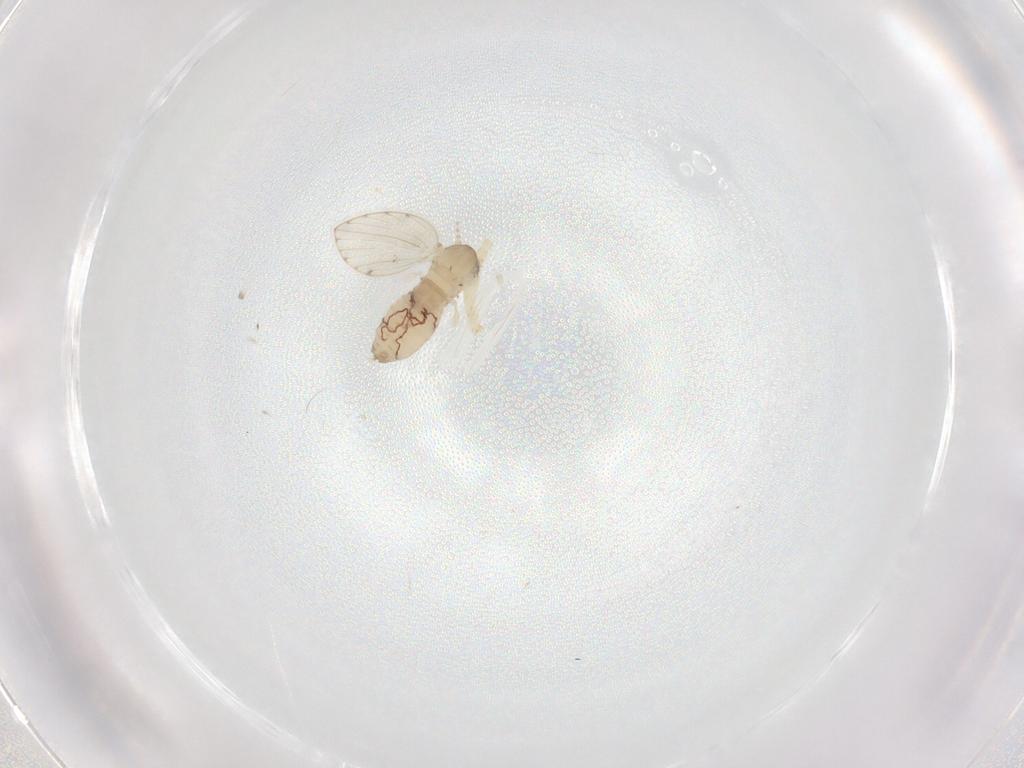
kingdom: Animalia
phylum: Arthropoda
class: Insecta
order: Diptera
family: Psychodidae
